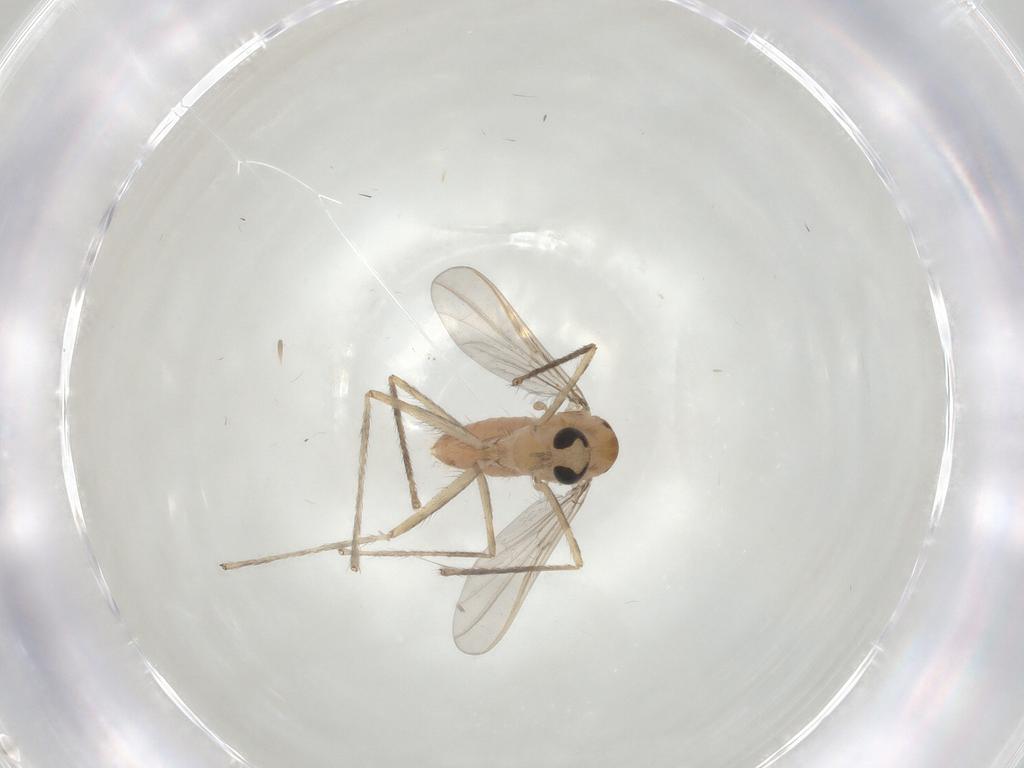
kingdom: Animalia
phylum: Arthropoda
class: Insecta
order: Diptera
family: Chironomidae
